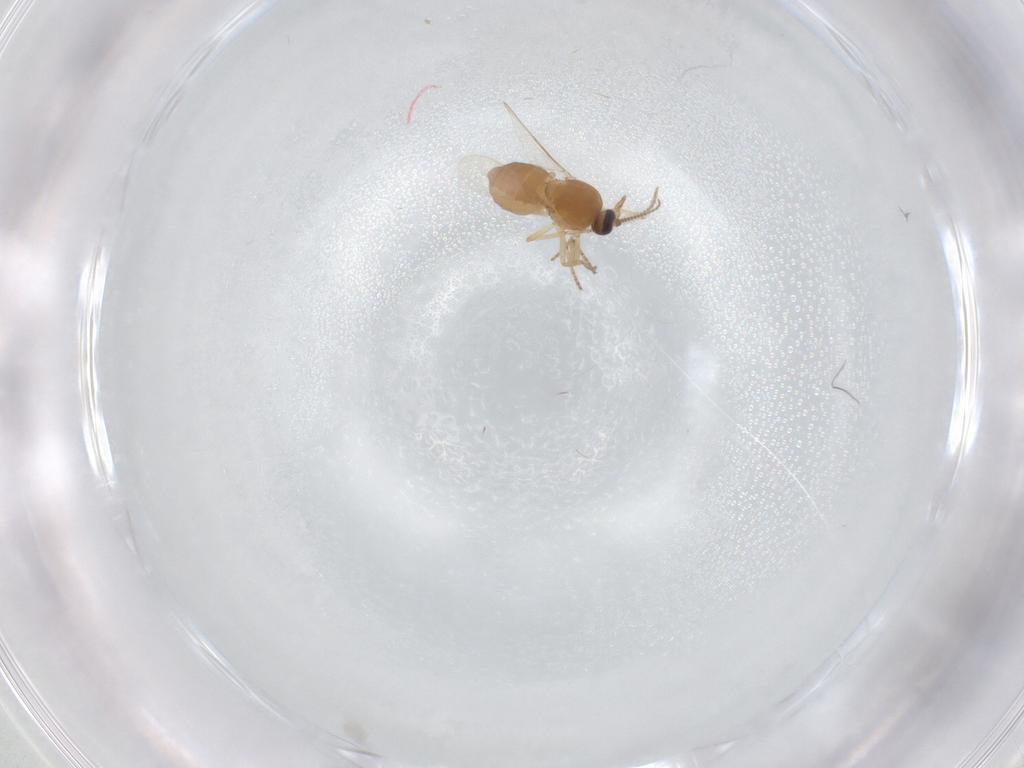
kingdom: Animalia
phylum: Arthropoda
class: Insecta
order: Diptera
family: Ceratopogonidae
